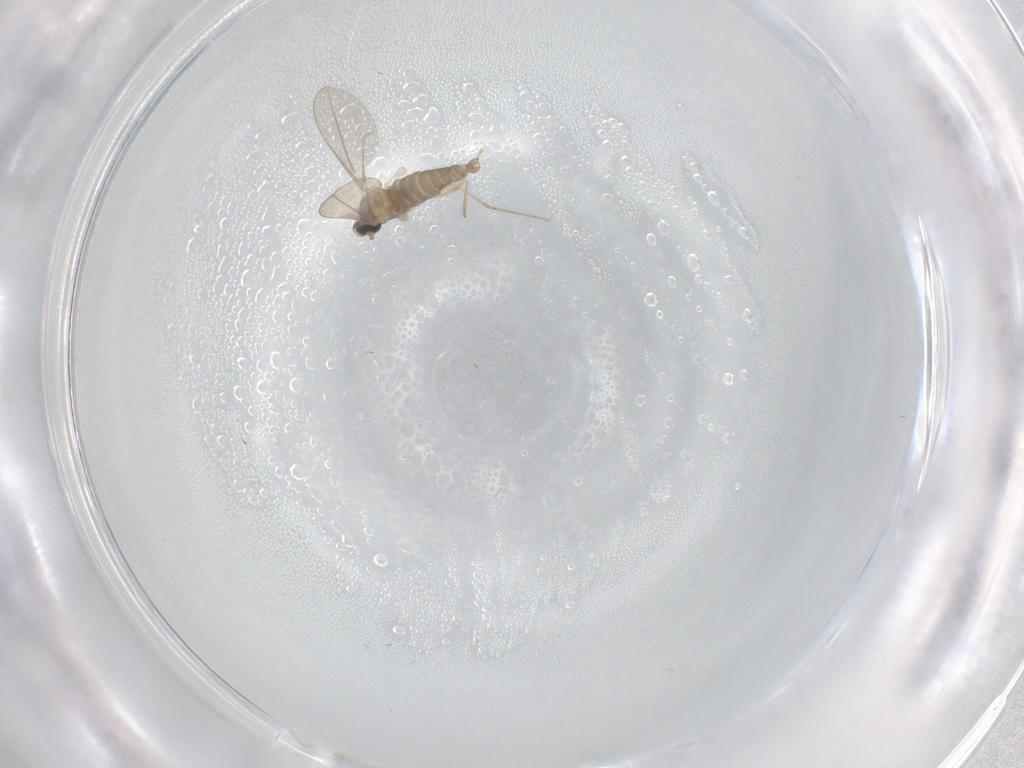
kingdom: Animalia
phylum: Arthropoda
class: Insecta
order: Diptera
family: Cecidomyiidae
